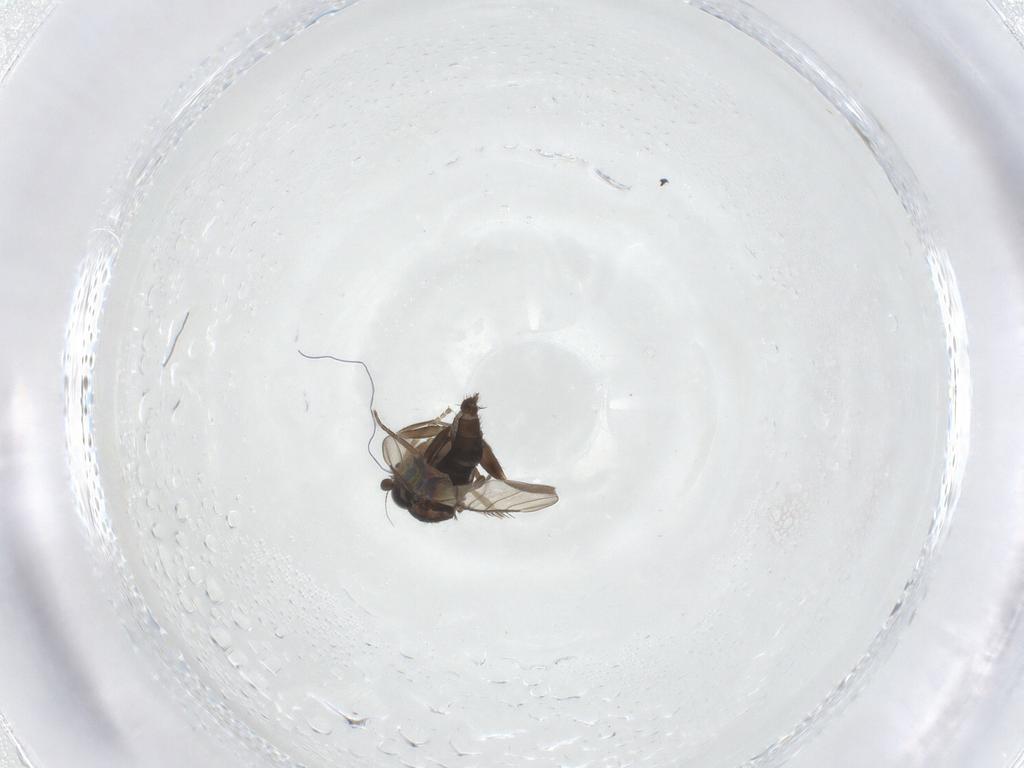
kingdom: Animalia
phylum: Arthropoda
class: Insecta
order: Diptera
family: Phoridae
